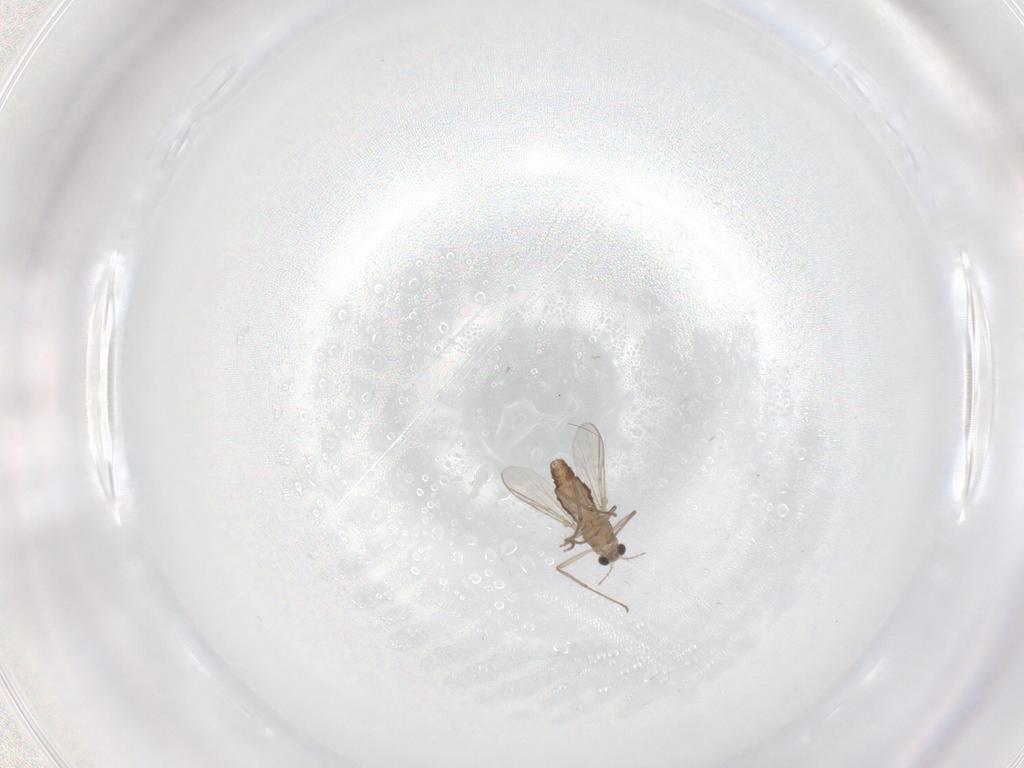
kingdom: Animalia
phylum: Arthropoda
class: Insecta
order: Diptera
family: Chironomidae
